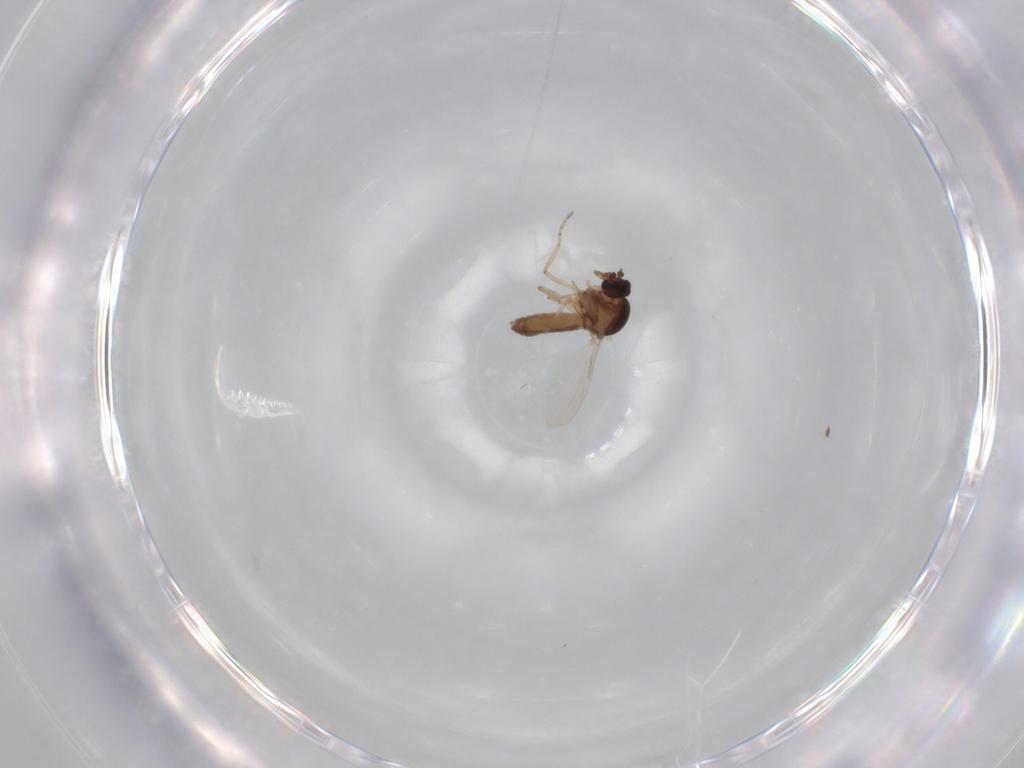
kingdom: Animalia
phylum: Arthropoda
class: Insecta
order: Diptera
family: Ceratopogonidae
